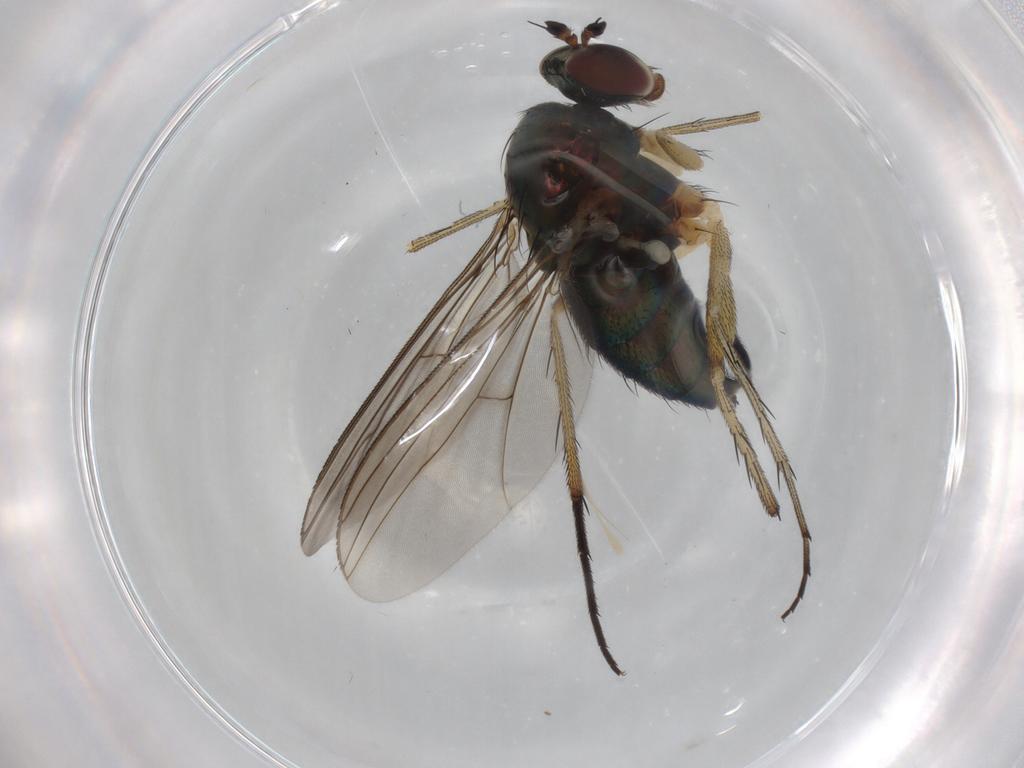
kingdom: Animalia
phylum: Arthropoda
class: Insecta
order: Diptera
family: Dolichopodidae
